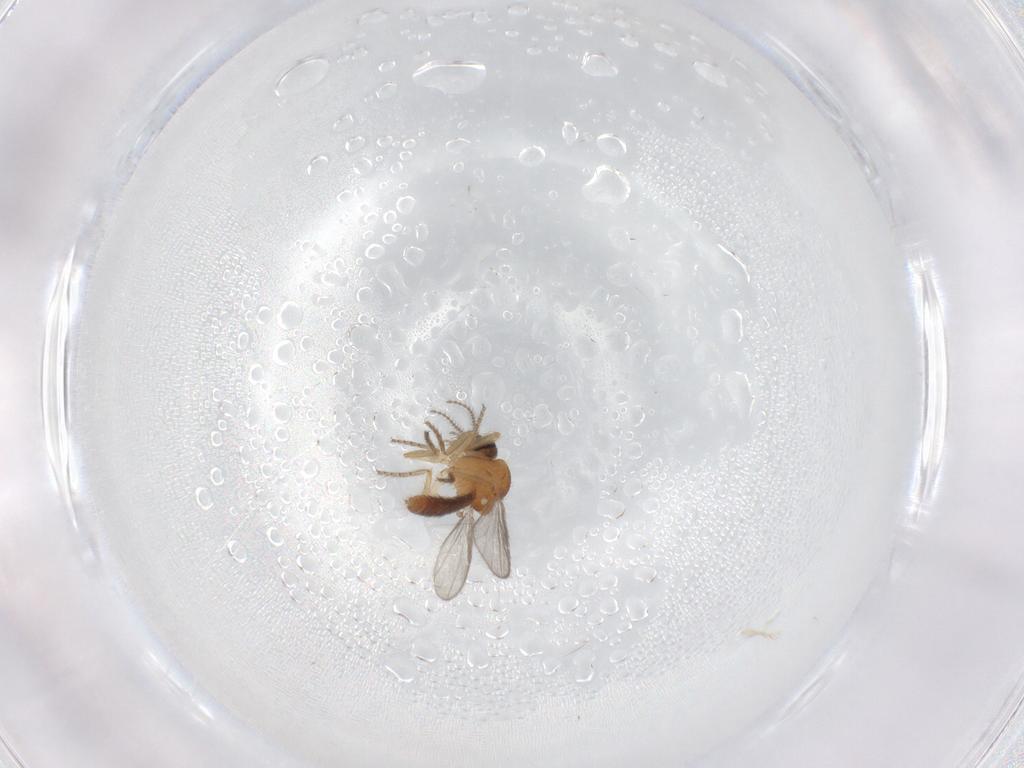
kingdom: Animalia
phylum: Arthropoda
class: Insecta
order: Diptera
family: Ceratopogonidae
